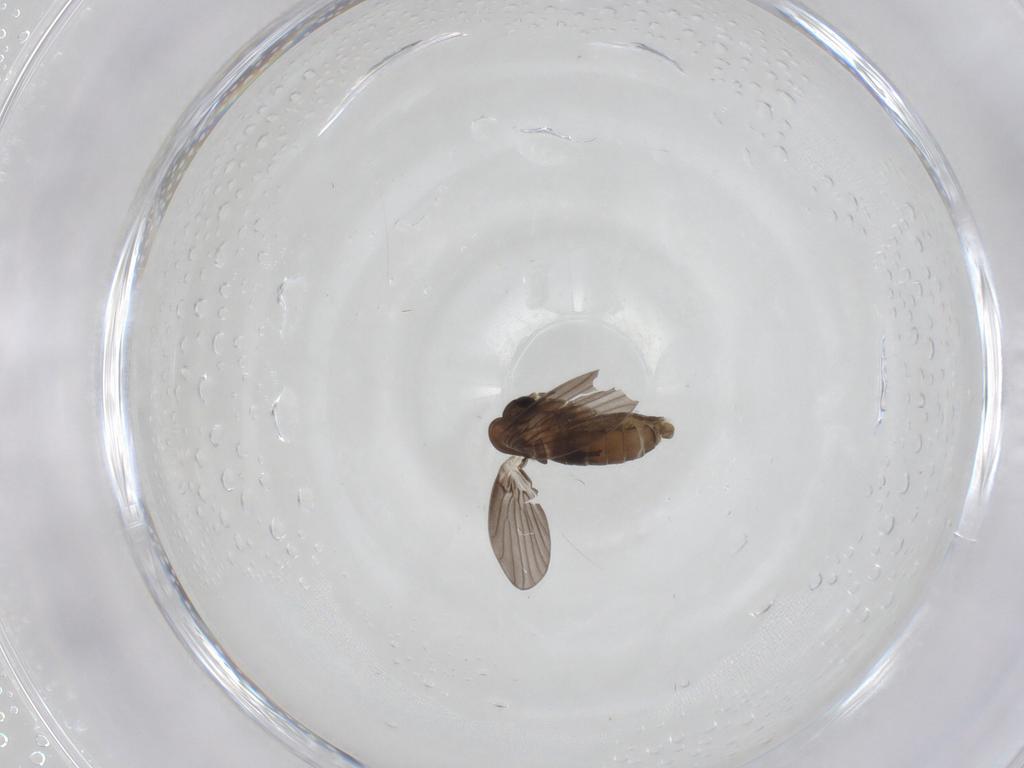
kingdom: Animalia
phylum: Arthropoda
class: Insecta
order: Diptera
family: Psychodidae
